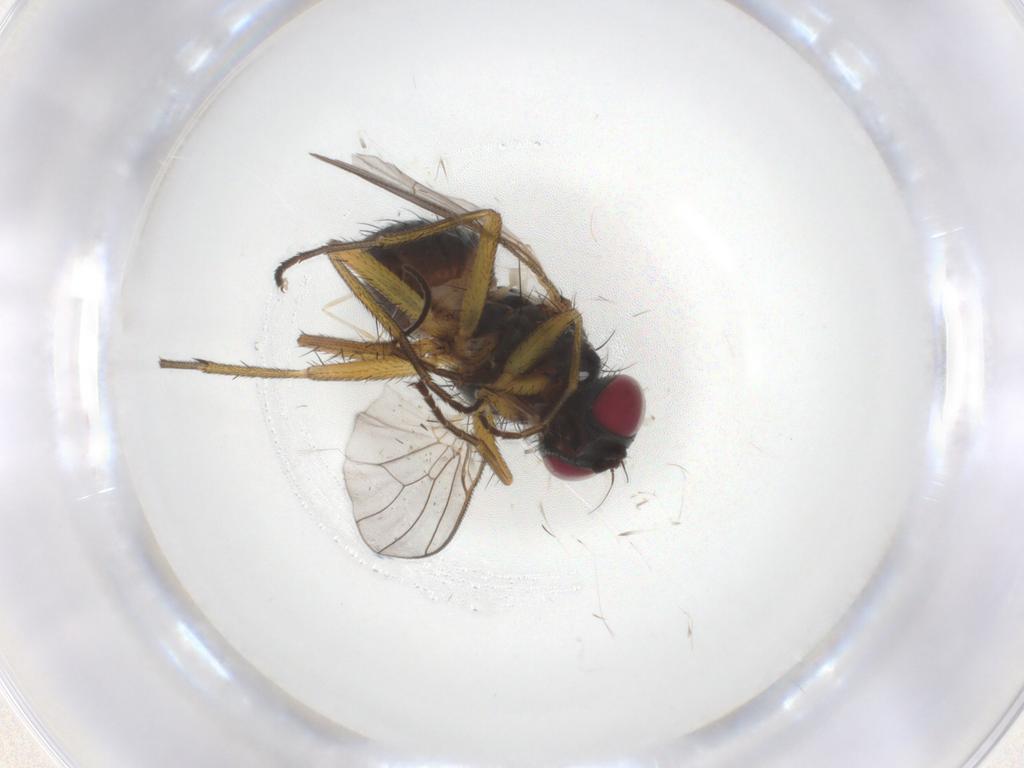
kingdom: Animalia
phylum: Arthropoda
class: Insecta
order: Diptera
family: Muscidae
